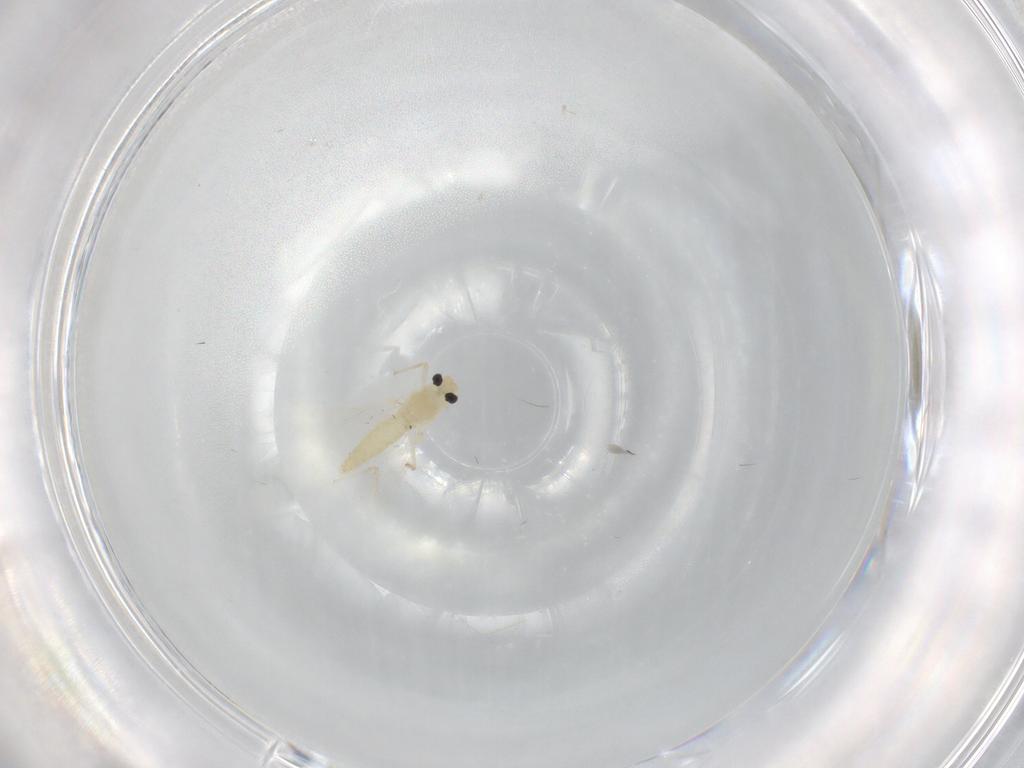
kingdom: Animalia
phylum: Arthropoda
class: Insecta
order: Diptera
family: Chironomidae
